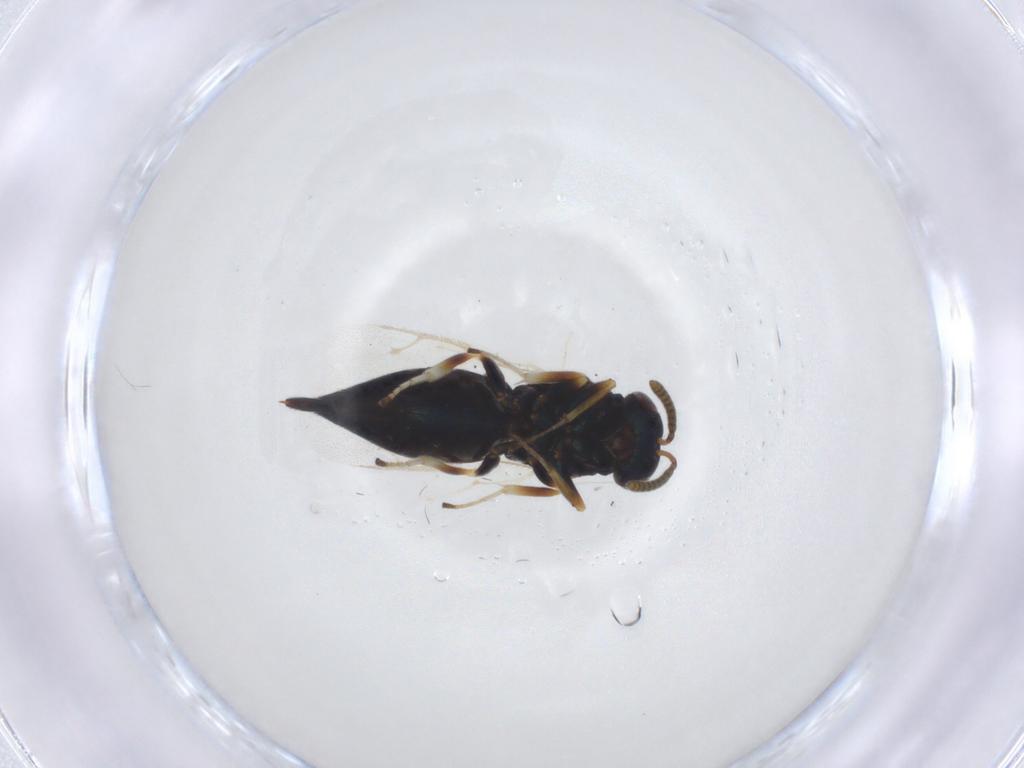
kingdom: Animalia
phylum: Arthropoda
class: Insecta
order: Hymenoptera
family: Pteromalidae
